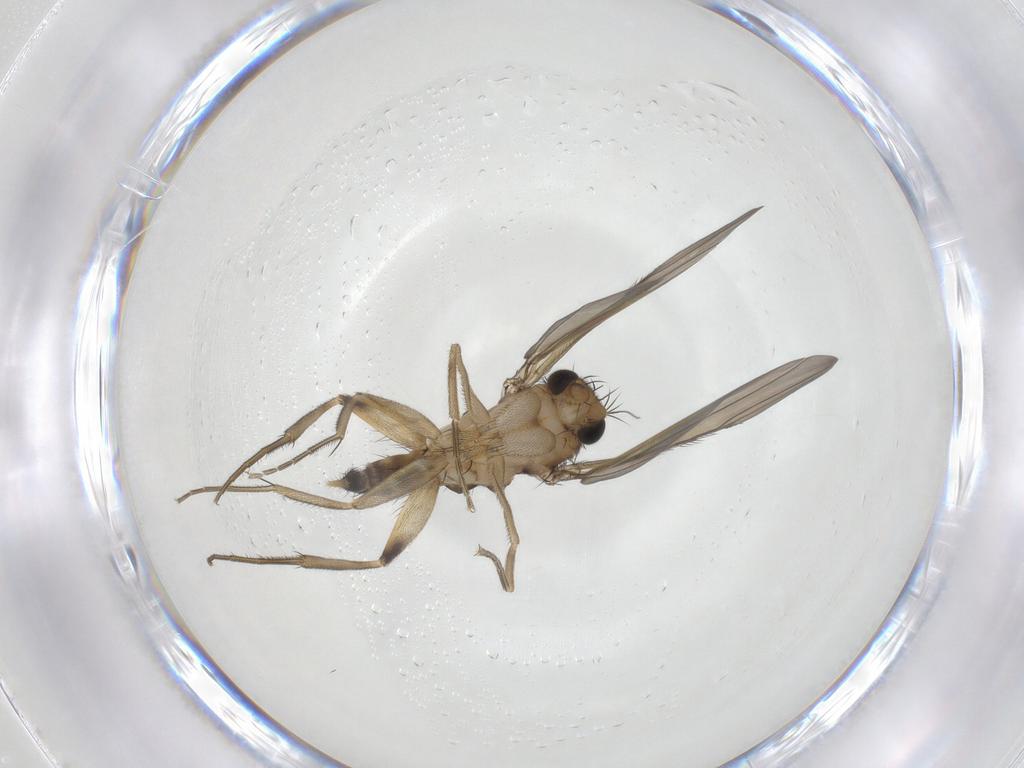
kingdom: Animalia
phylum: Arthropoda
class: Insecta
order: Diptera
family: Phoridae
